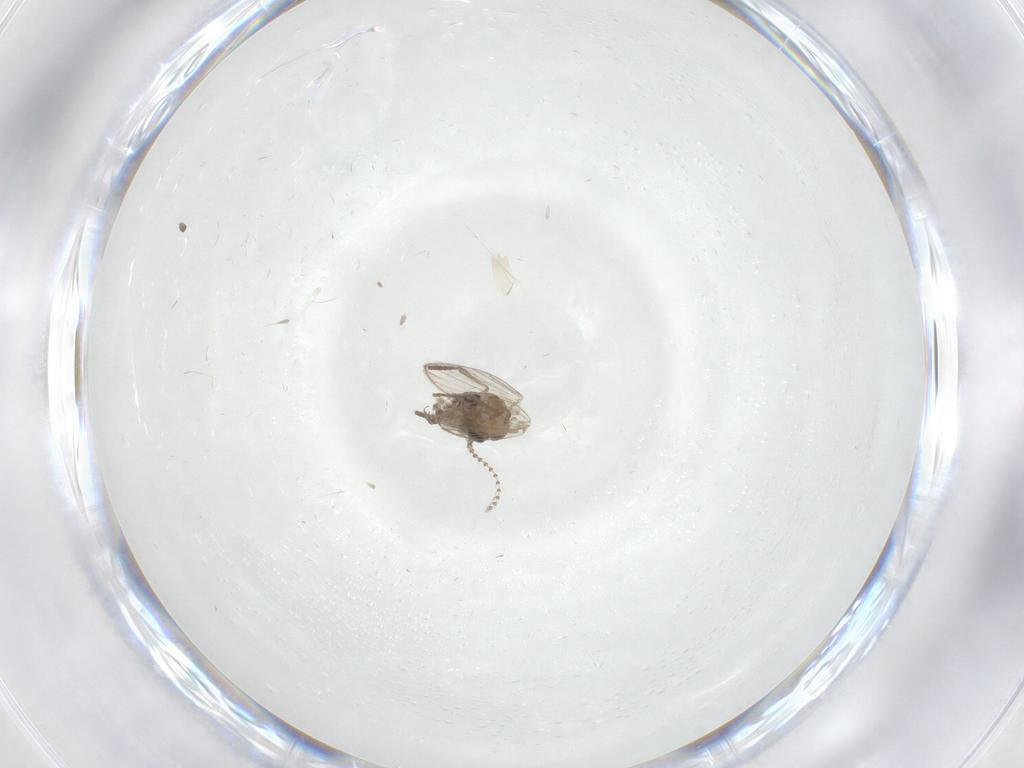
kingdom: Animalia
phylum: Arthropoda
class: Insecta
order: Diptera
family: Psychodidae
